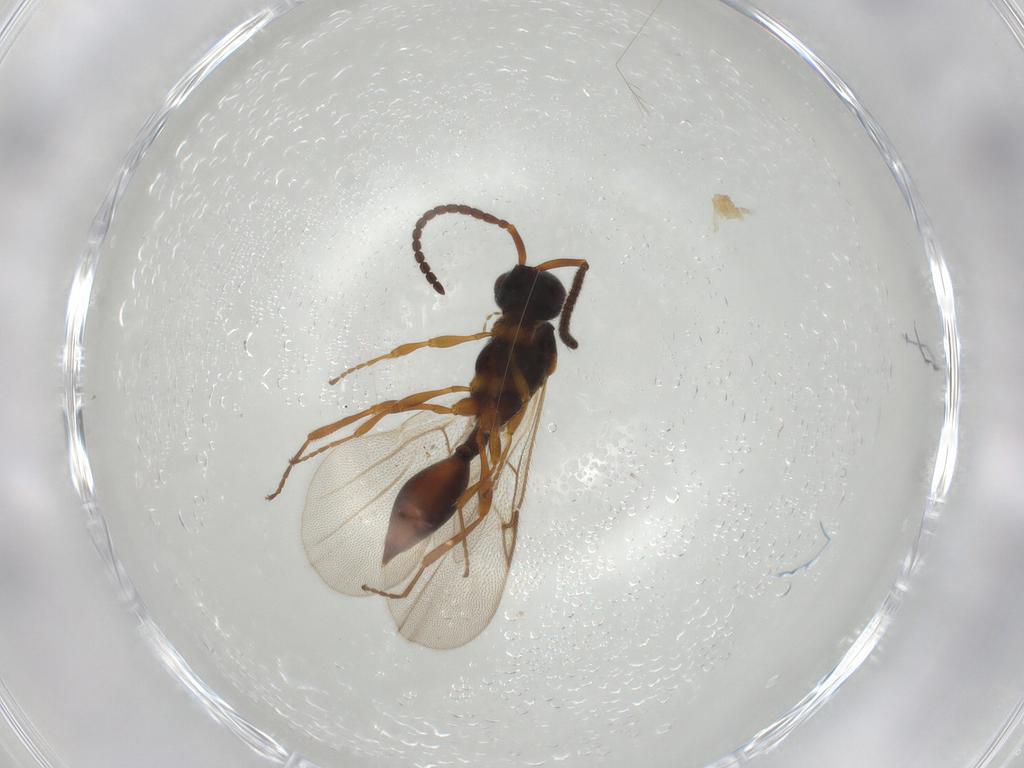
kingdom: Animalia
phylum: Arthropoda
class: Insecta
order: Hymenoptera
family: Diapriidae
